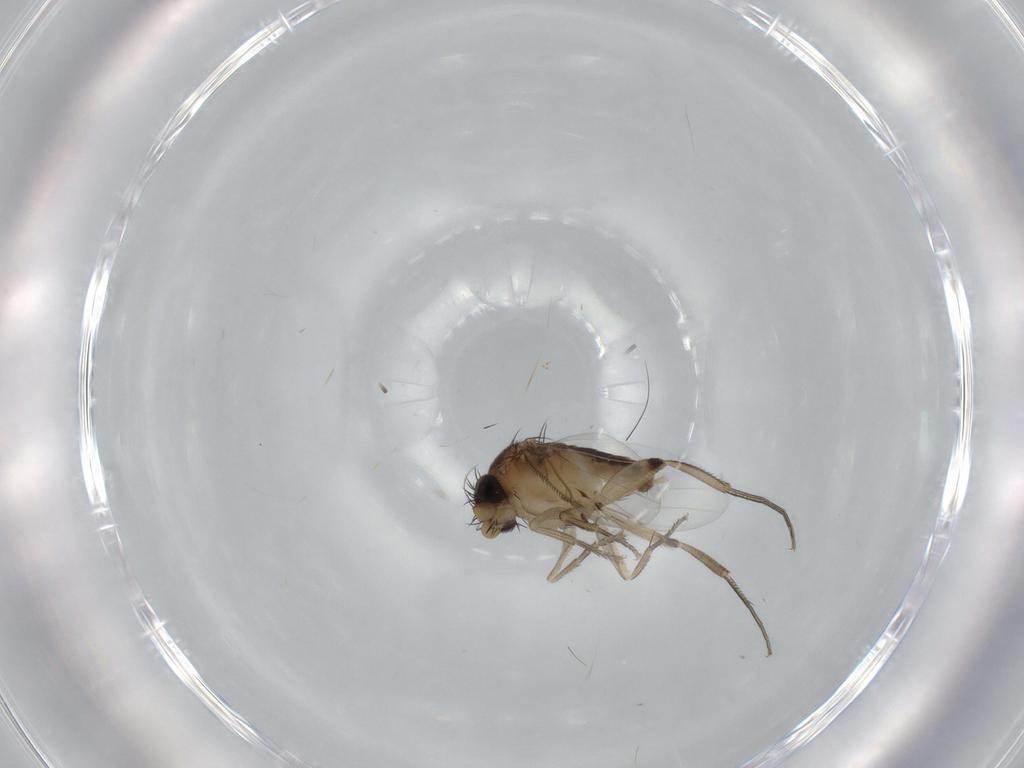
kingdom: Animalia
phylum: Arthropoda
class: Insecta
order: Diptera
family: Phoridae
